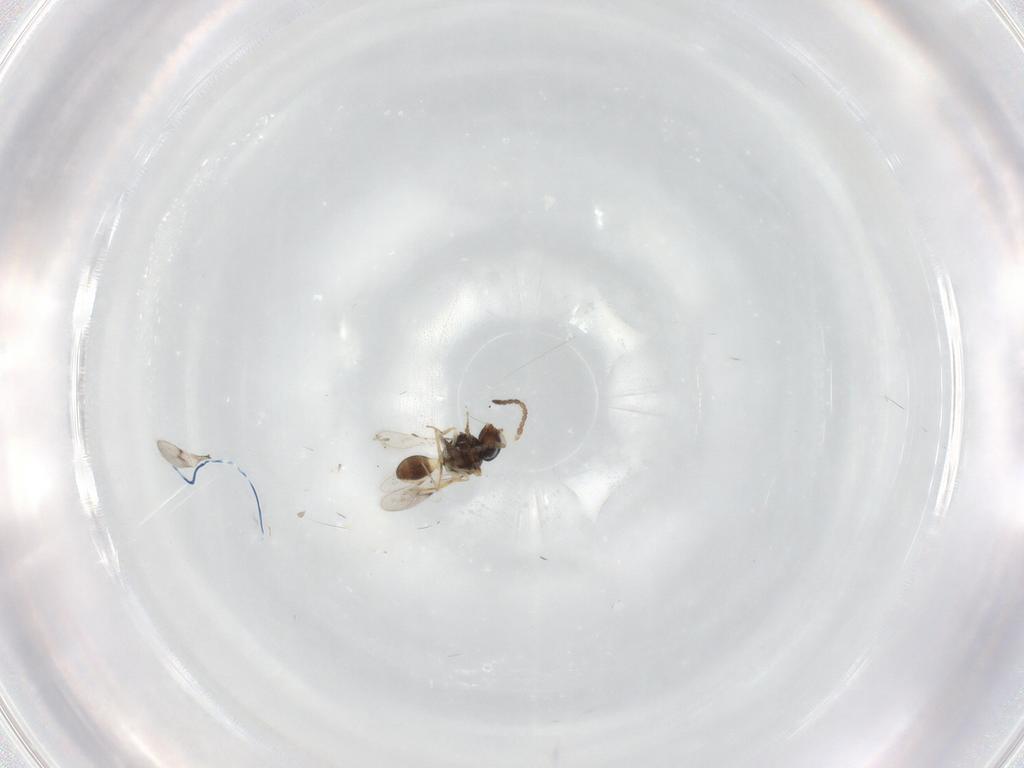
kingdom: Animalia
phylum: Arthropoda
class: Insecta
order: Hymenoptera
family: Scelionidae
